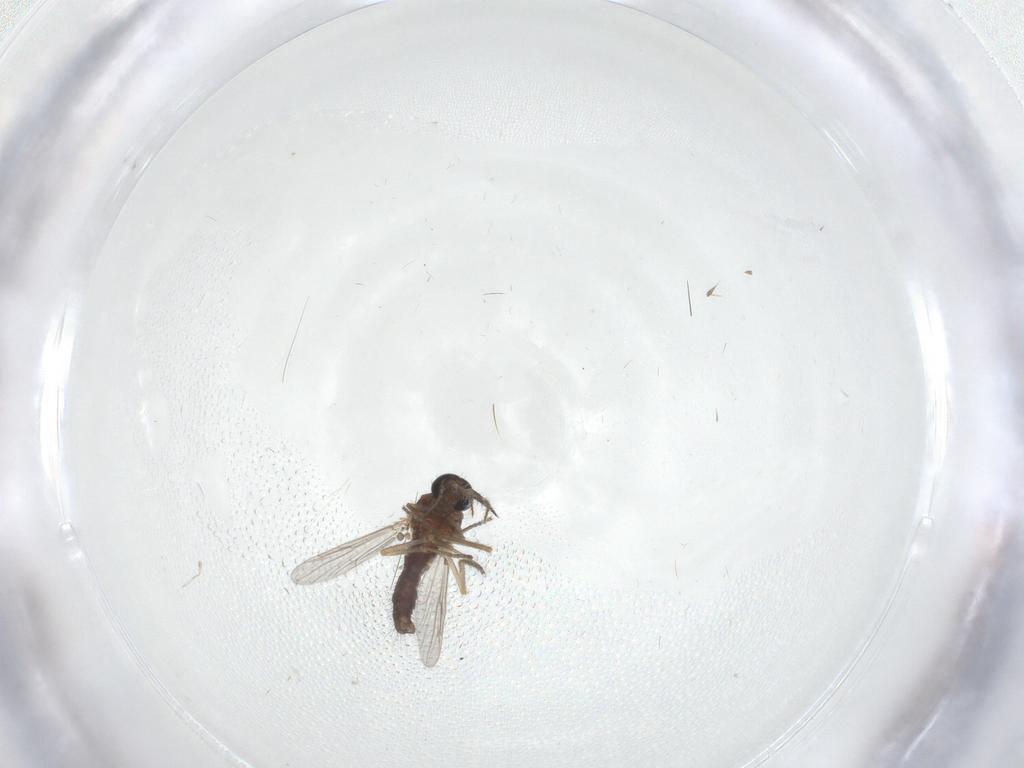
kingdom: Animalia
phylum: Arthropoda
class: Insecta
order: Diptera
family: Ceratopogonidae
